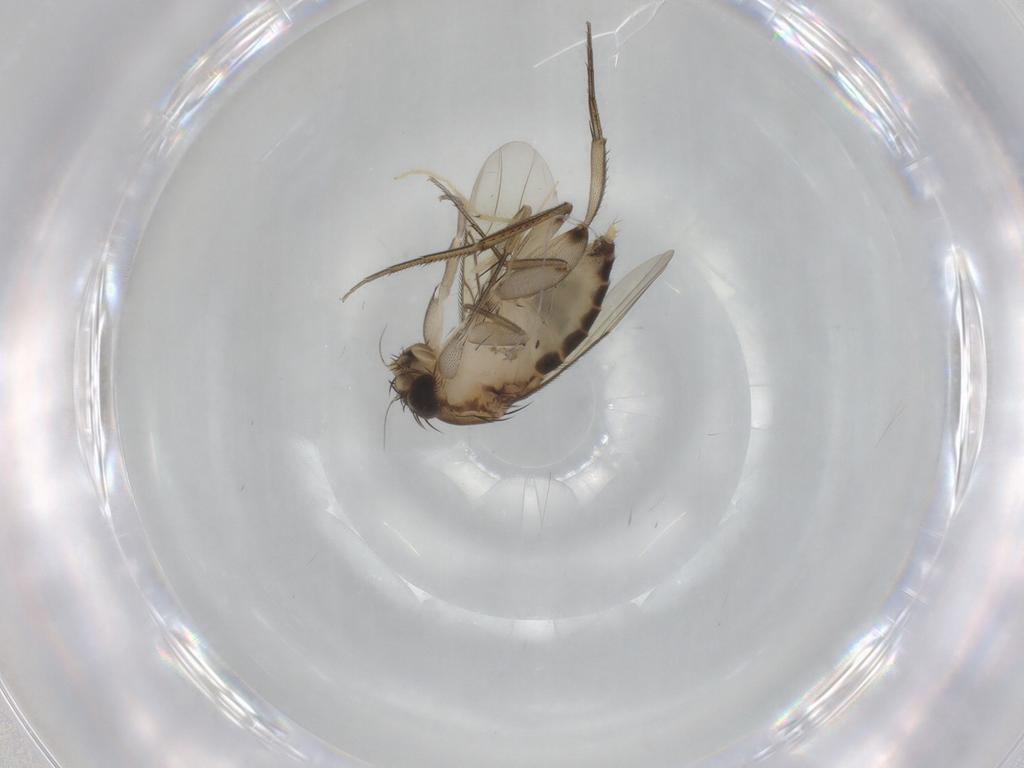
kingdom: Animalia
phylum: Arthropoda
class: Insecta
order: Diptera
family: Phoridae
